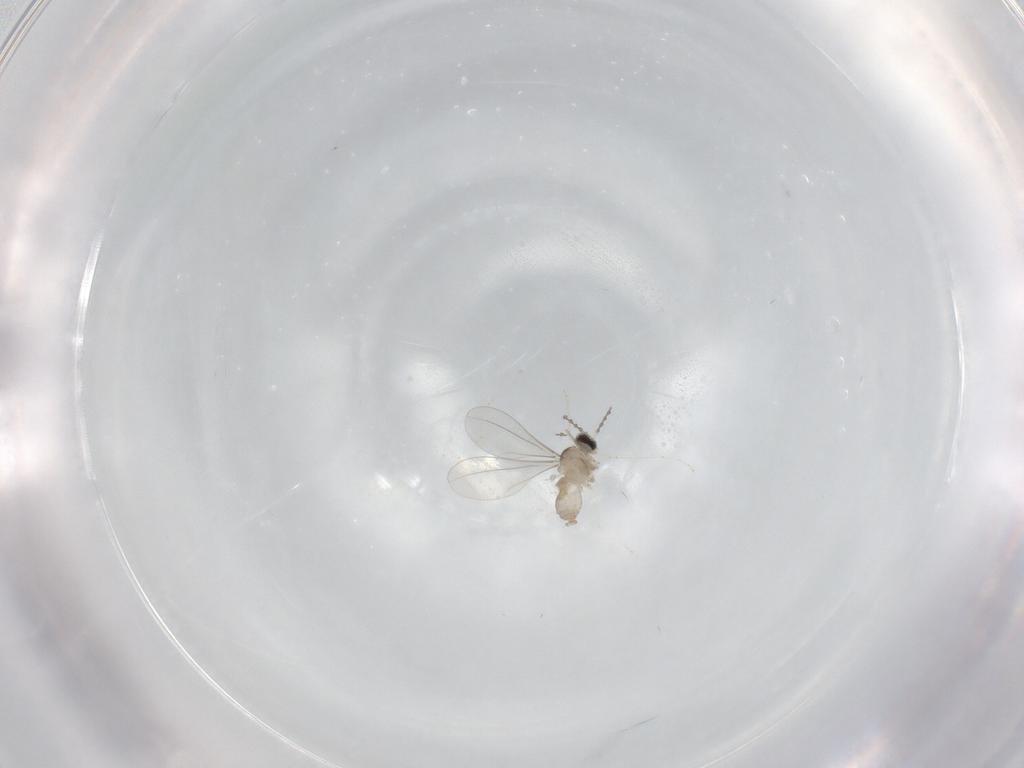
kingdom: Animalia
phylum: Arthropoda
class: Insecta
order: Diptera
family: Cecidomyiidae
